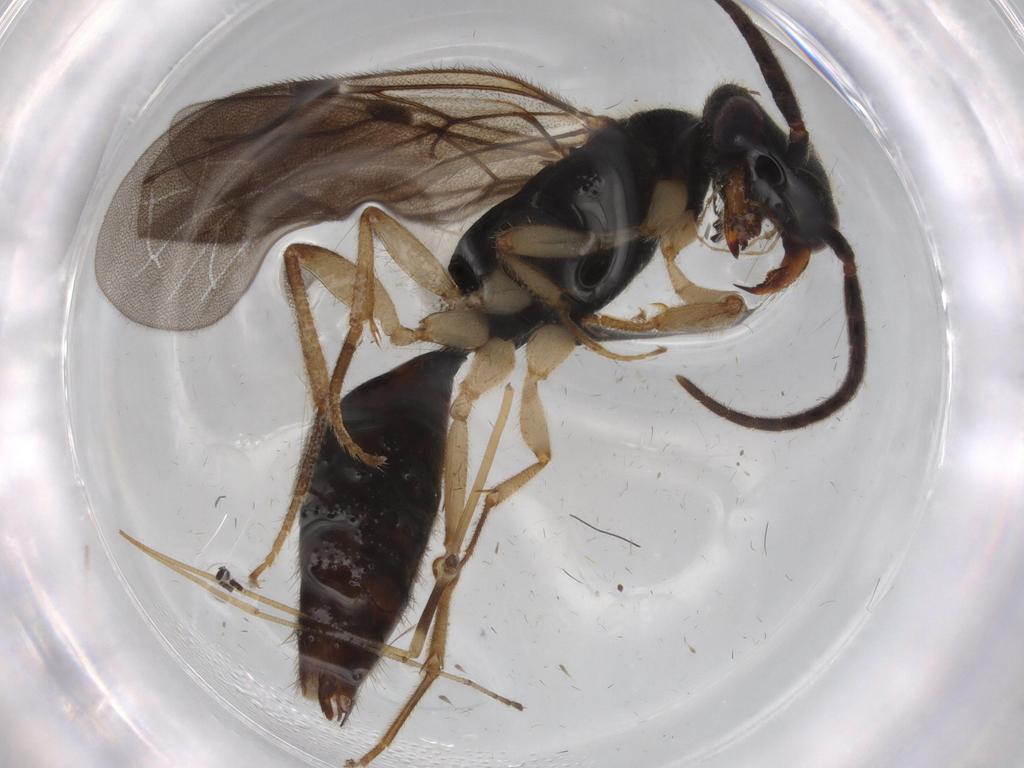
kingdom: Animalia
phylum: Arthropoda
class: Insecta
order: Hymenoptera
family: Bethylidae
